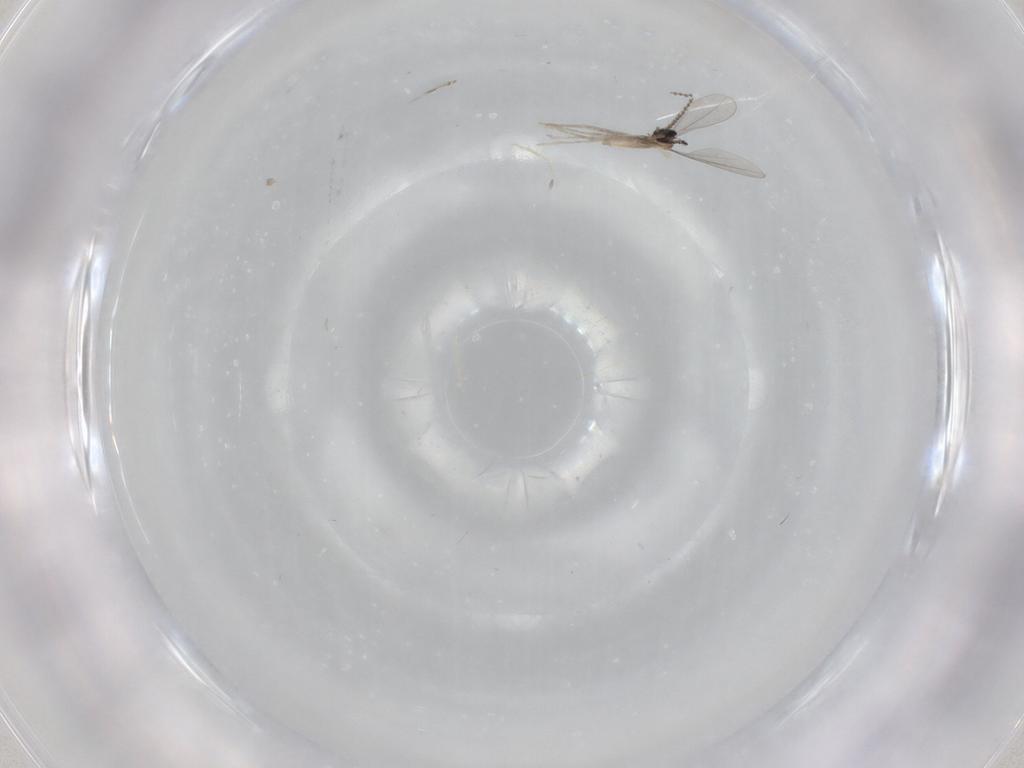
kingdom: Animalia
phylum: Arthropoda
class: Insecta
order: Diptera
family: Cecidomyiidae
